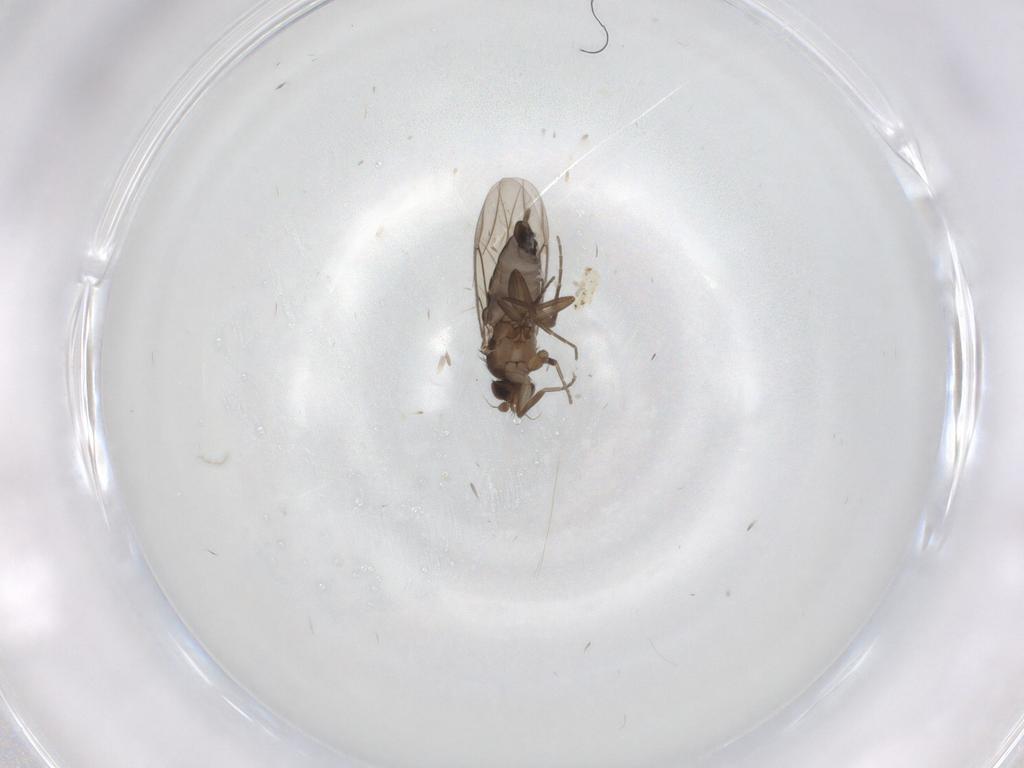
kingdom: Animalia
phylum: Arthropoda
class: Insecta
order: Diptera
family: Phoridae
